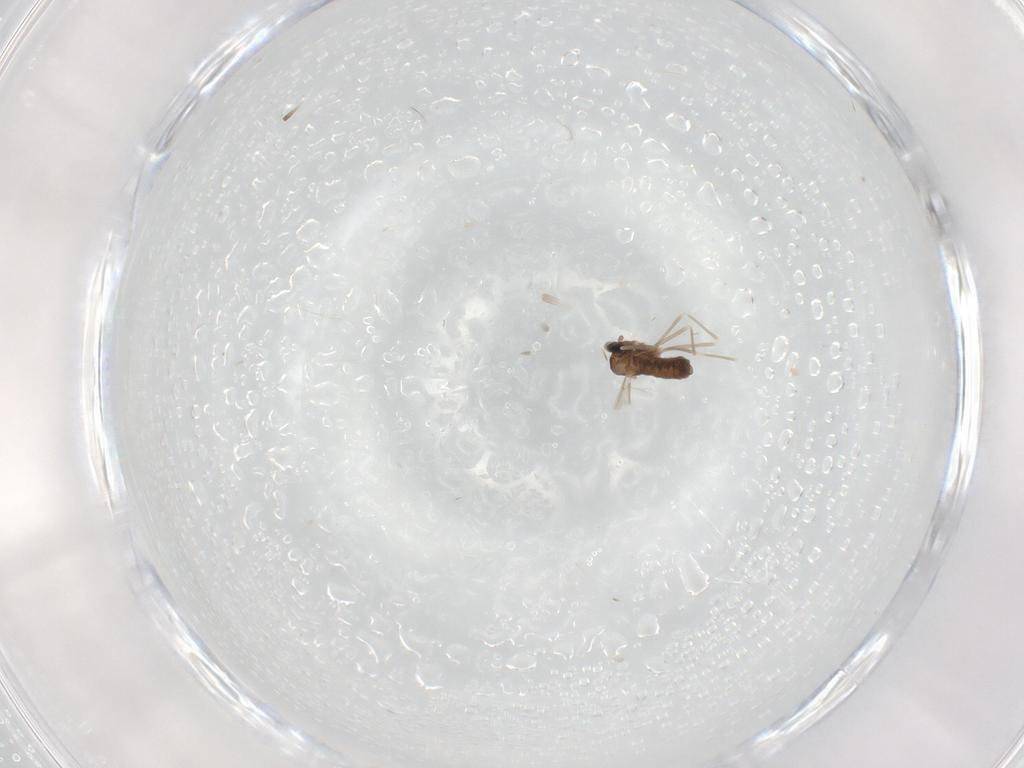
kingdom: Animalia
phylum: Arthropoda
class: Insecta
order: Diptera
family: Cecidomyiidae
